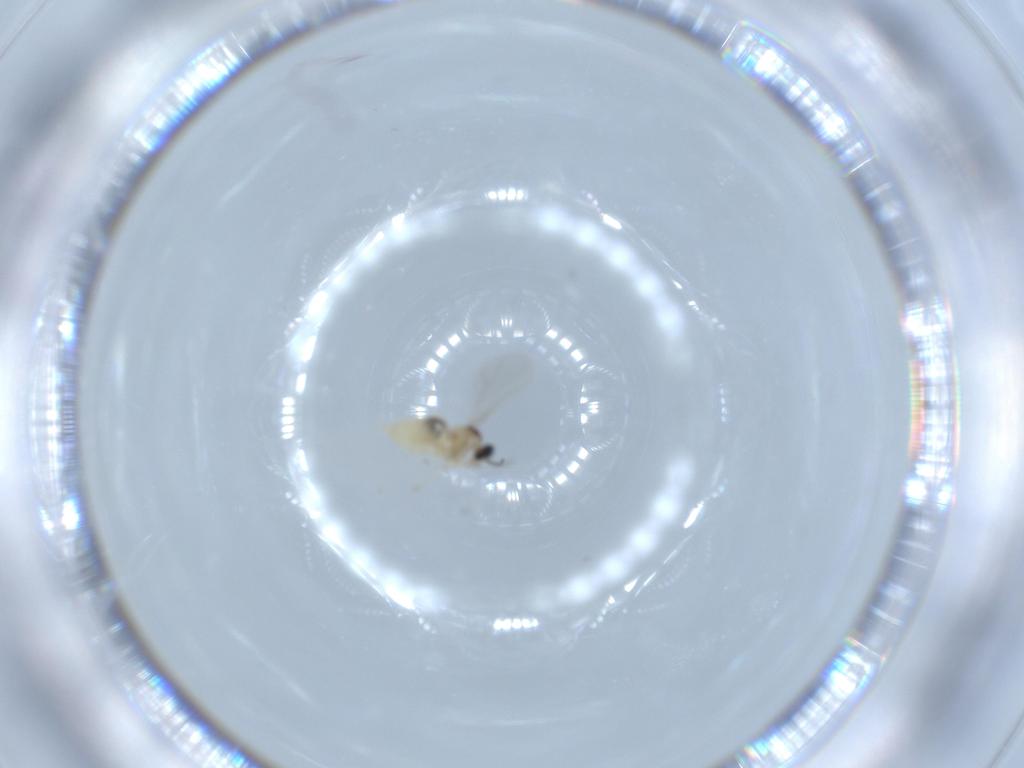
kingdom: Animalia
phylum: Arthropoda
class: Insecta
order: Diptera
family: Cecidomyiidae
